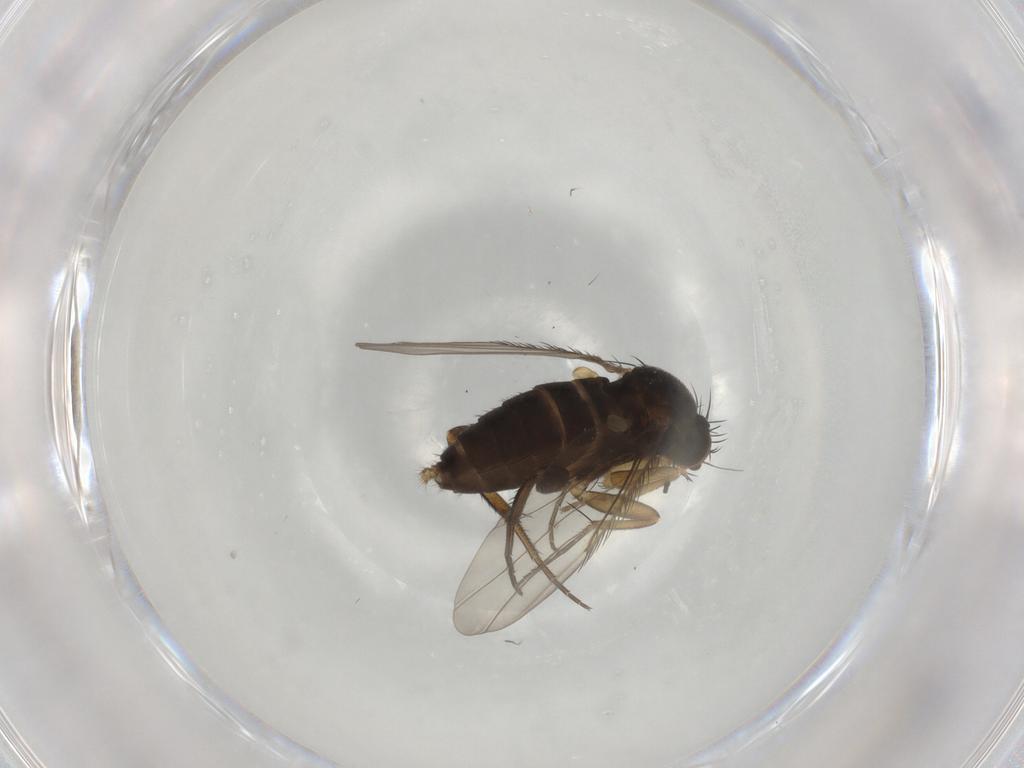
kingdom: Animalia
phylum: Arthropoda
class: Insecta
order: Diptera
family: Phoridae
